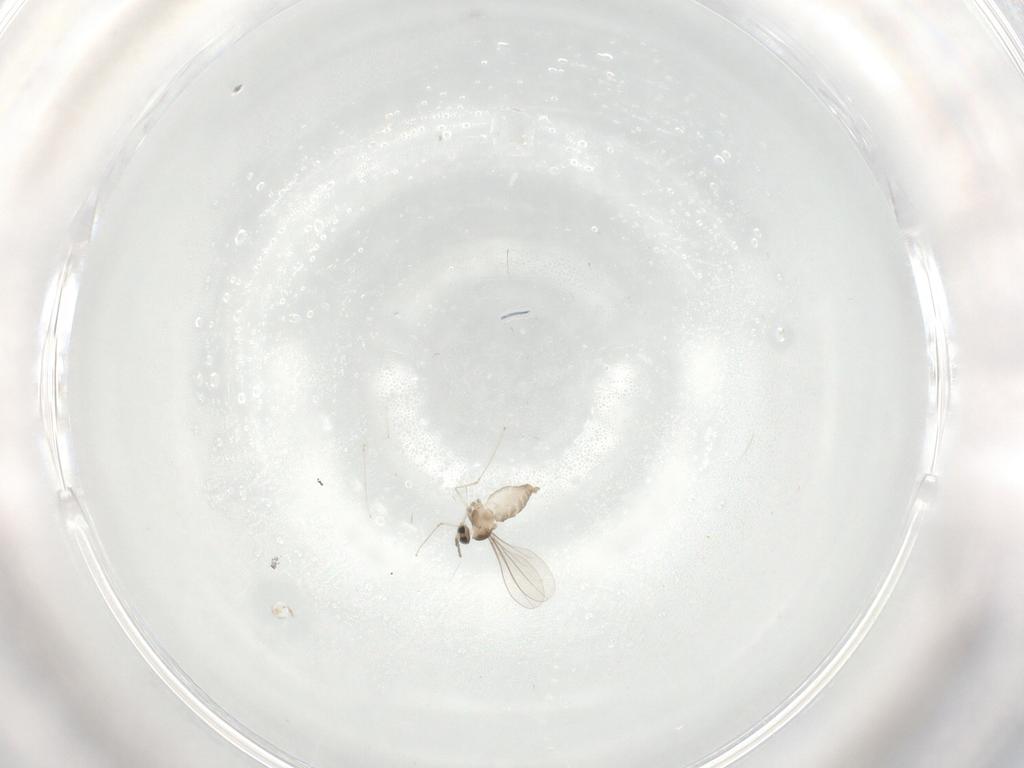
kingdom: Animalia
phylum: Arthropoda
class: Insecta
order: Diptera
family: Cecidomyiidae
